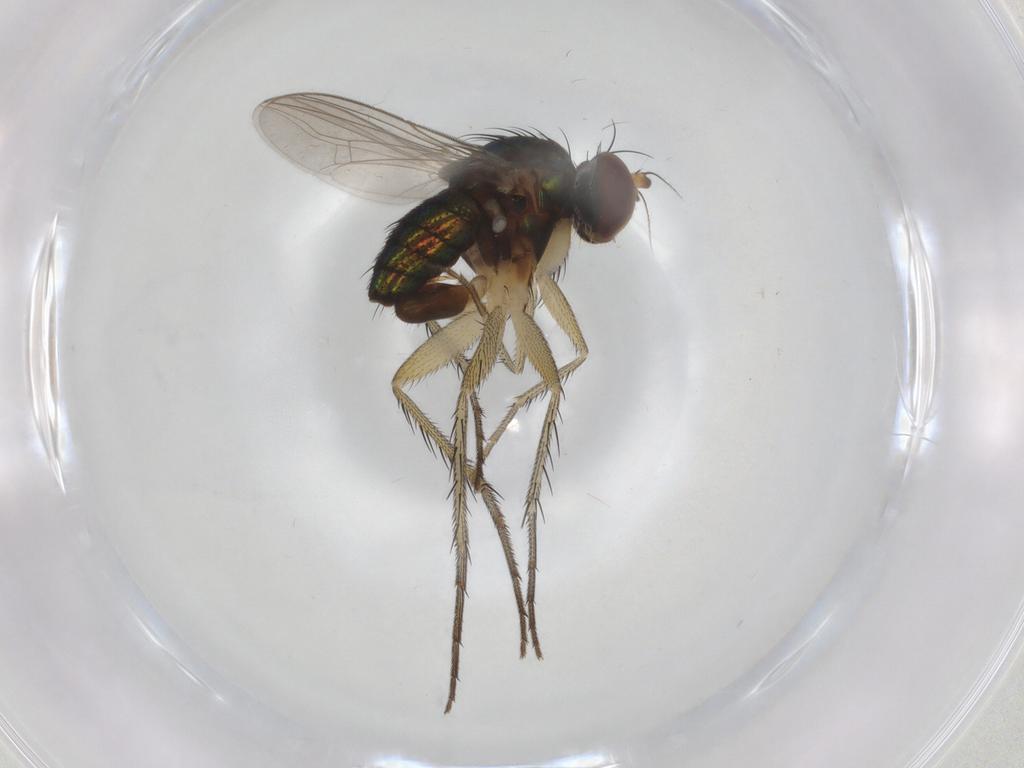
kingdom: Animalia
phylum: Arthropoda
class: Insecta
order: Diptera
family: Dolichopodidae
